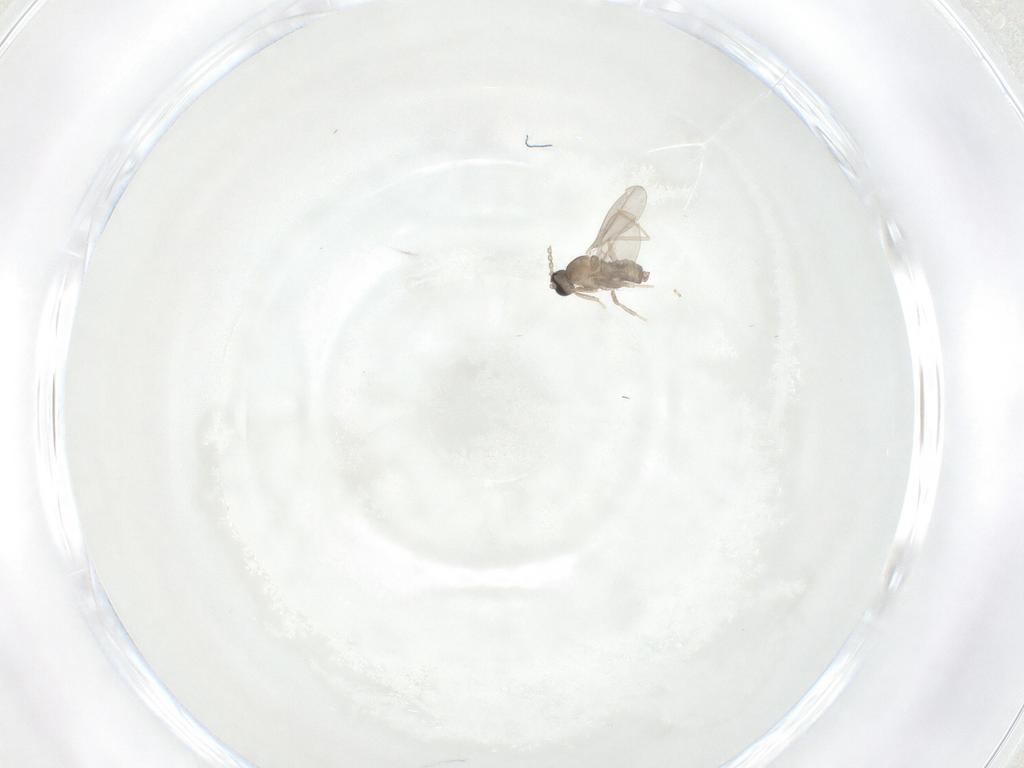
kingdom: Animalia
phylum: Arthropoda
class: Insecta
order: Diptera
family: Cecidomyiidae
